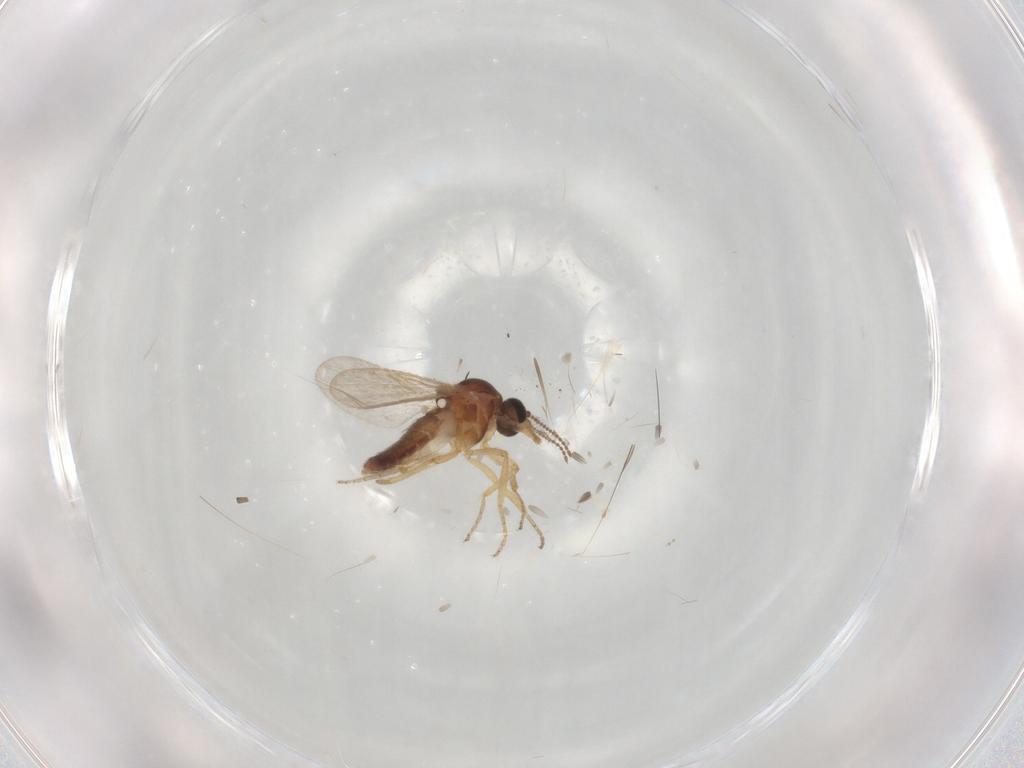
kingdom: Animalia
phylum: Arthropoda
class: Insecta
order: Diptera
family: Ceratopogonidae
